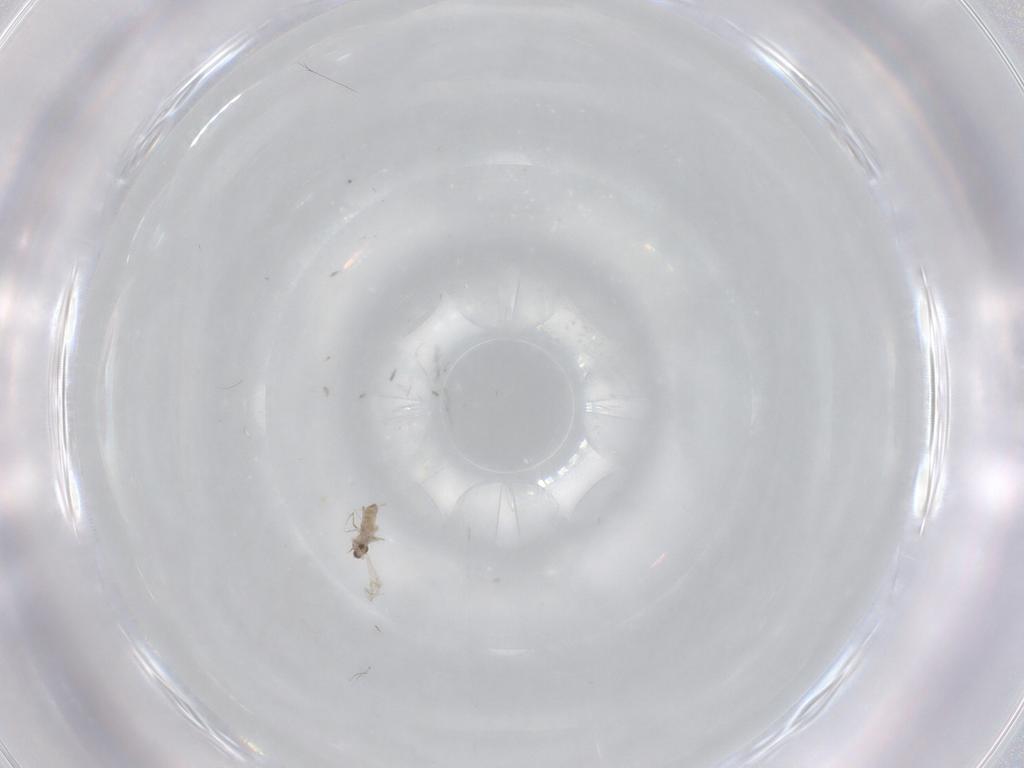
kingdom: Animalia
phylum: Arthropoda
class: Insecta
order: Diptera
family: Cecidomyiidae
